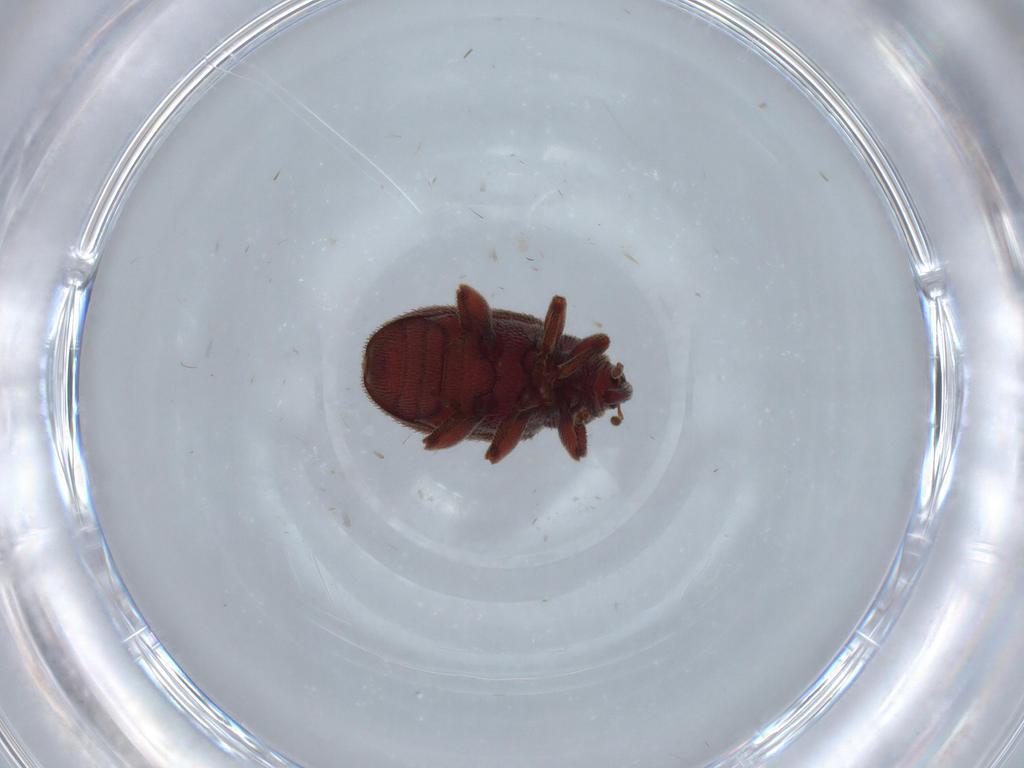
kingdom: Animalia
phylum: Arthropoda
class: Insecta
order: Coleoptera
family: Curculionidae
